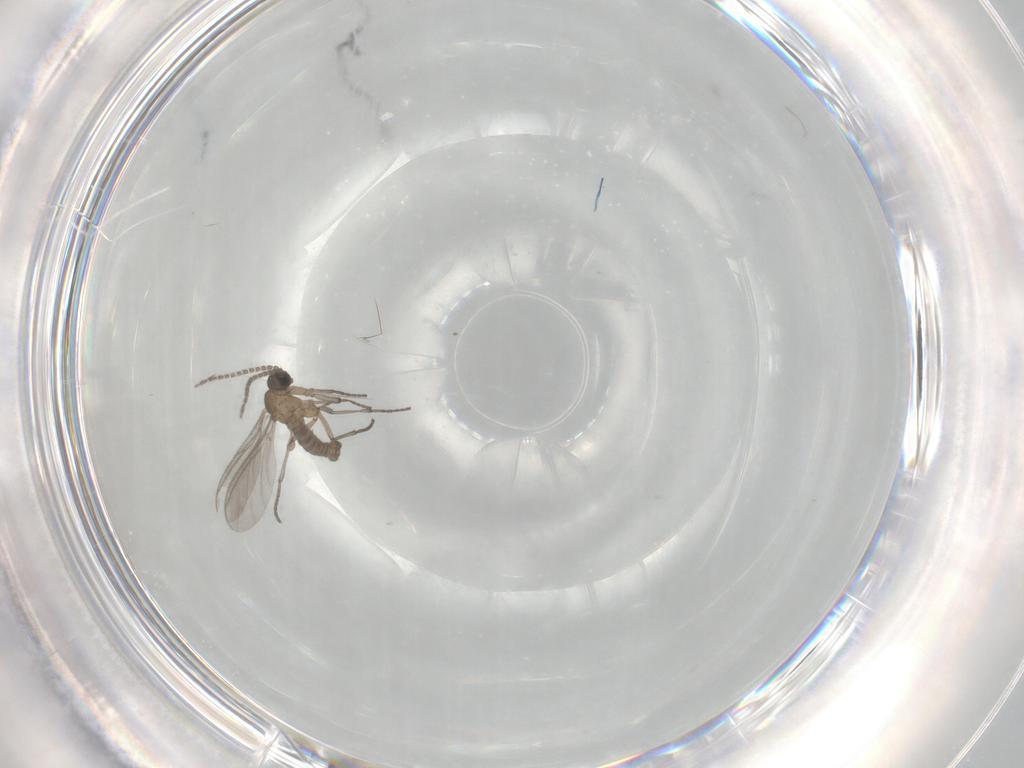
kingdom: Animalia
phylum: Arthropoda
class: Insecta
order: Diptera
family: Sciaridae
